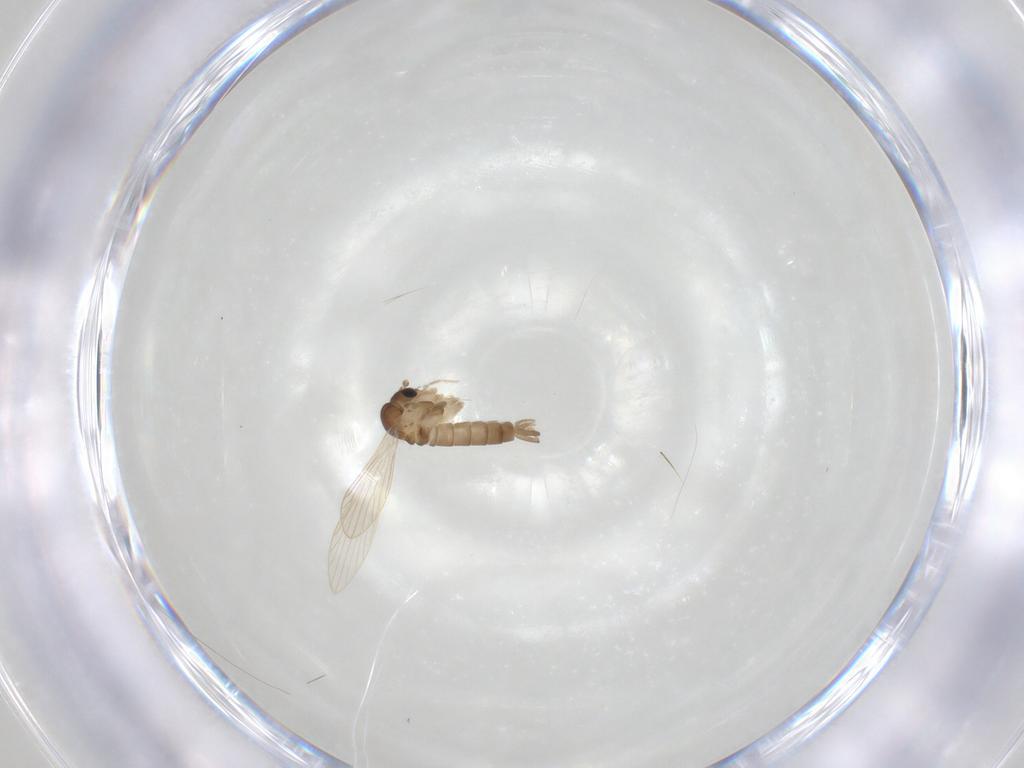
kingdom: Animalia
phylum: Arthropoda
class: Insecta
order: Diptera
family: Psychodidae
